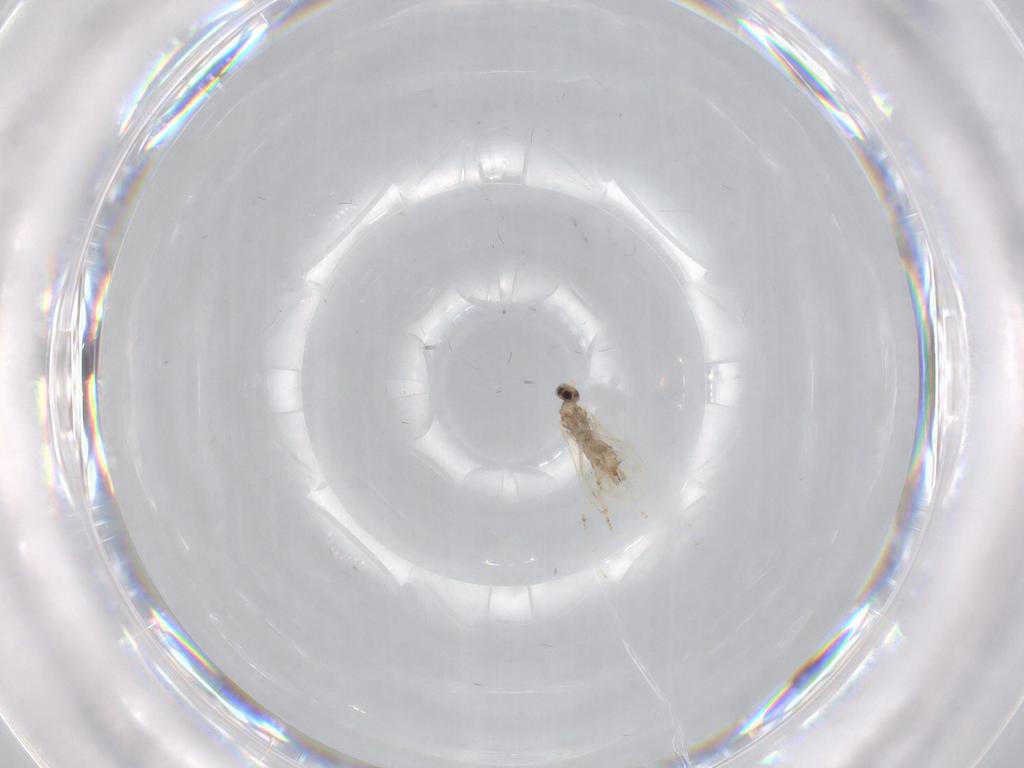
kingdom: Animalia
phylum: Arthropoda
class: Insecta
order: Diptera
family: Cecidomyiidae
